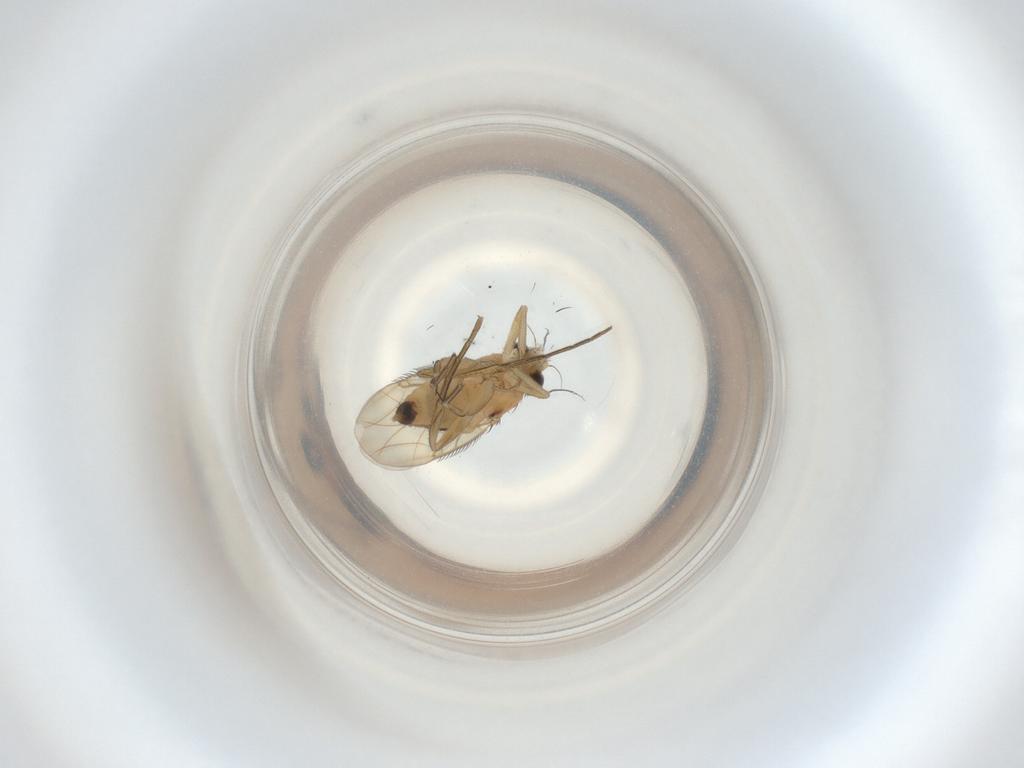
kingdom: Animalia
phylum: Arthropoda
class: Insecta
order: Diptera
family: Phoridae
